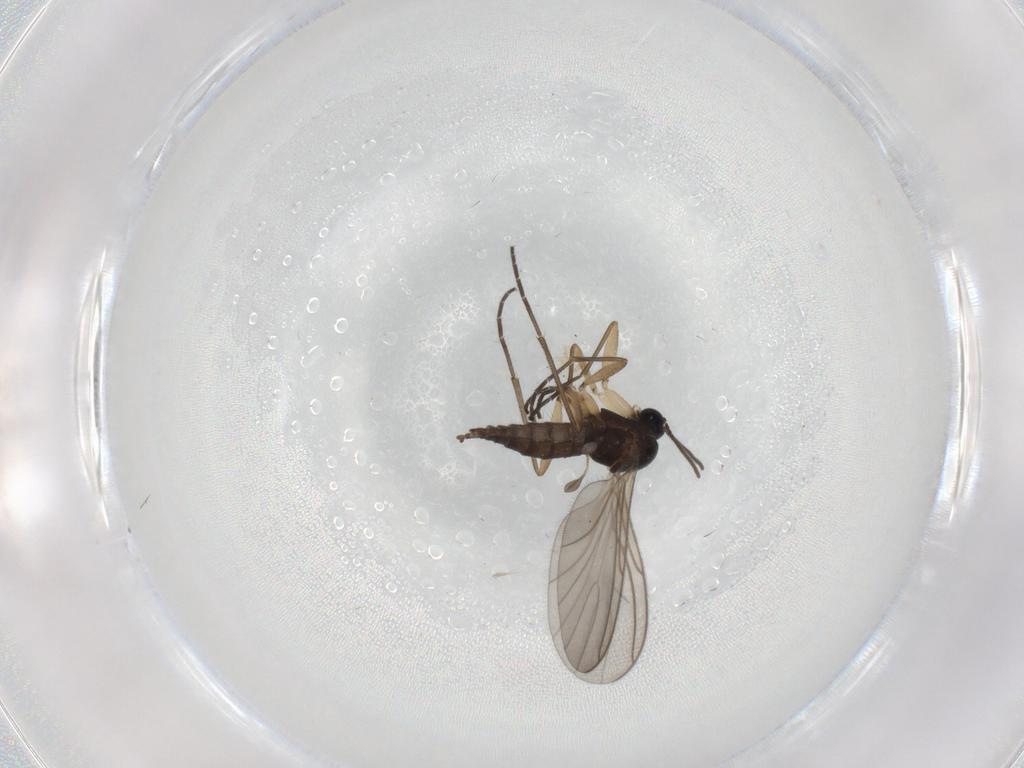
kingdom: Animalia
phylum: Arthropoda
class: Insecta
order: Diptera
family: Sciaridae
